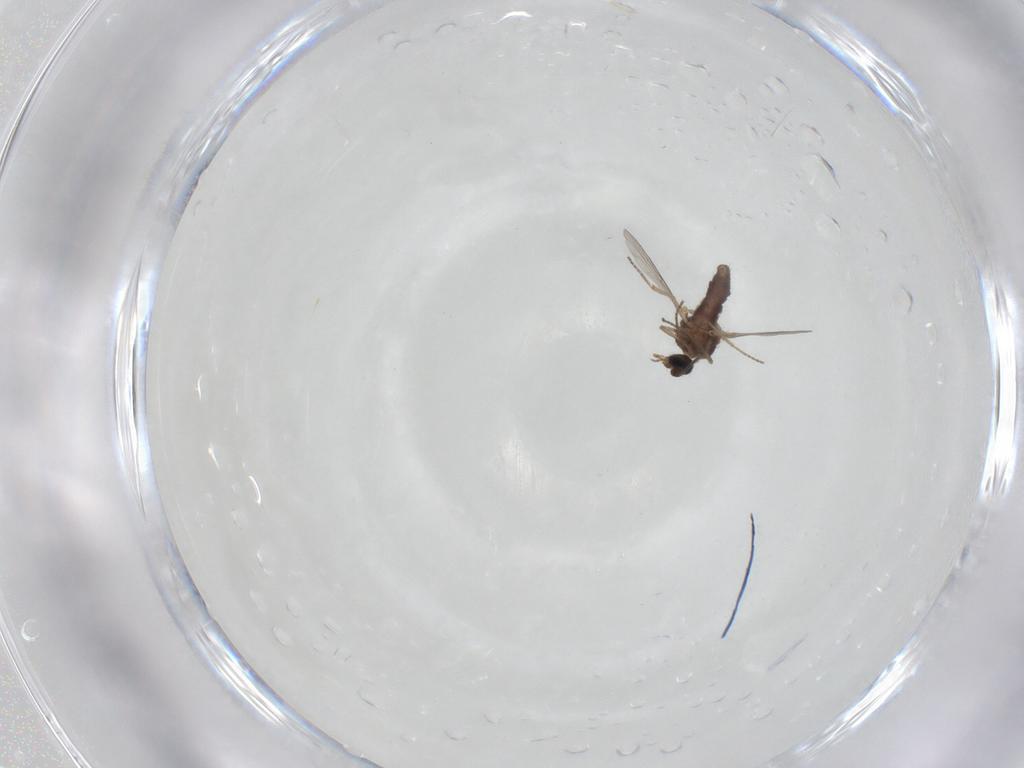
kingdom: Animalia
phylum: Arthropoda
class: Insecta
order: Diptera
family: Ceratopogonidae
